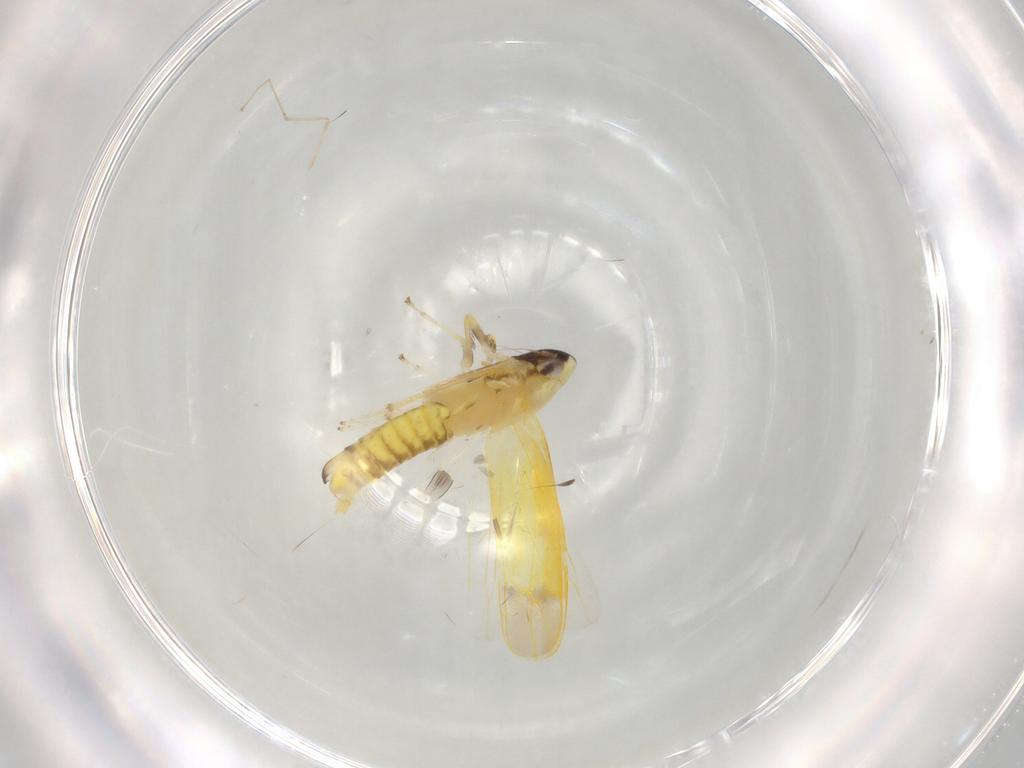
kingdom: Animalia
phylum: Arthropoda
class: Insecta
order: Hemiptera
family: Cicadellidae
